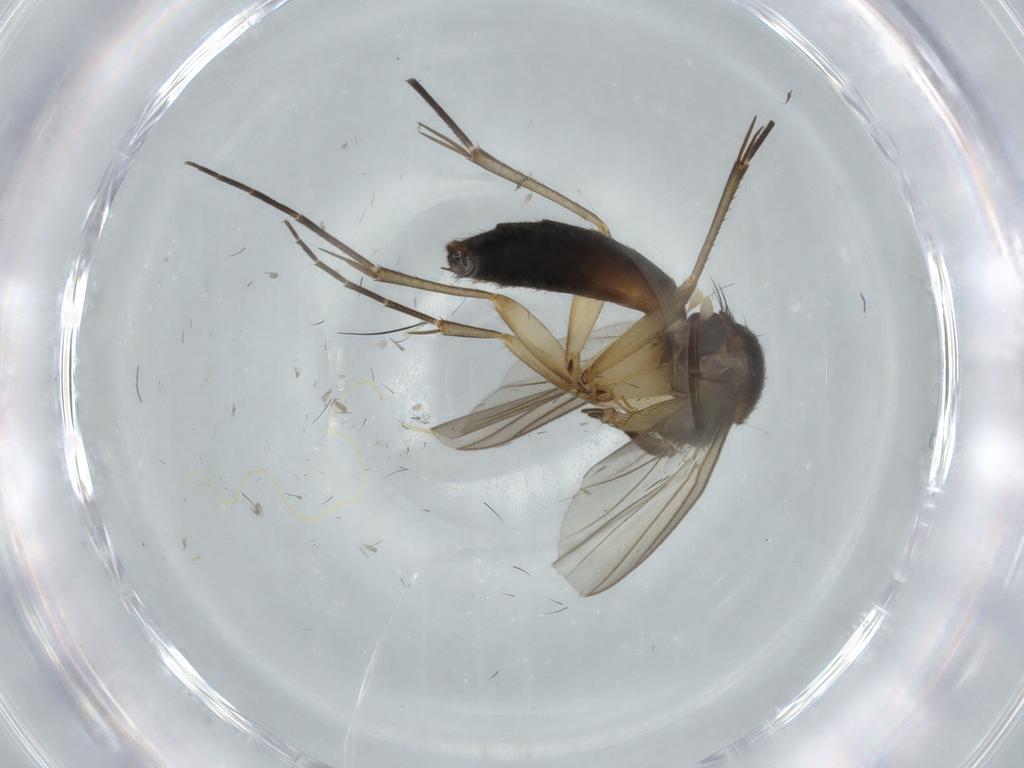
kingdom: Animalia
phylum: Arthropoda
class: Insecta
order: Diptera
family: Mycetophilidae
